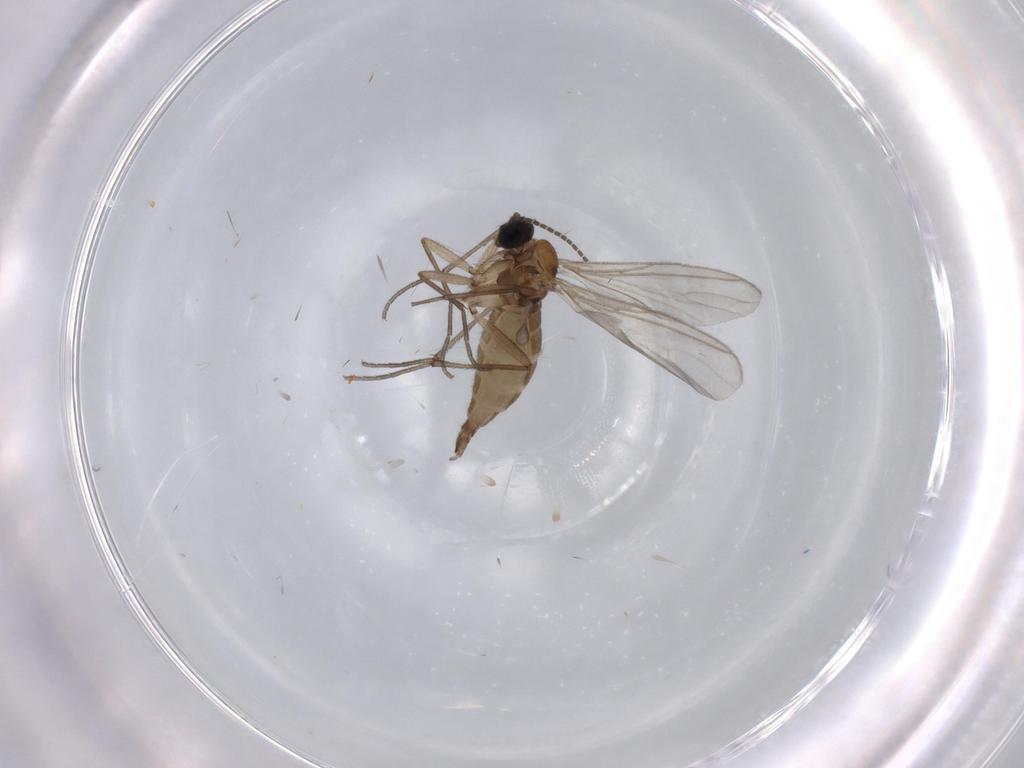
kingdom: Animalia
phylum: Arthropoda
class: Insecta
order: Diptera
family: Sciaridae
